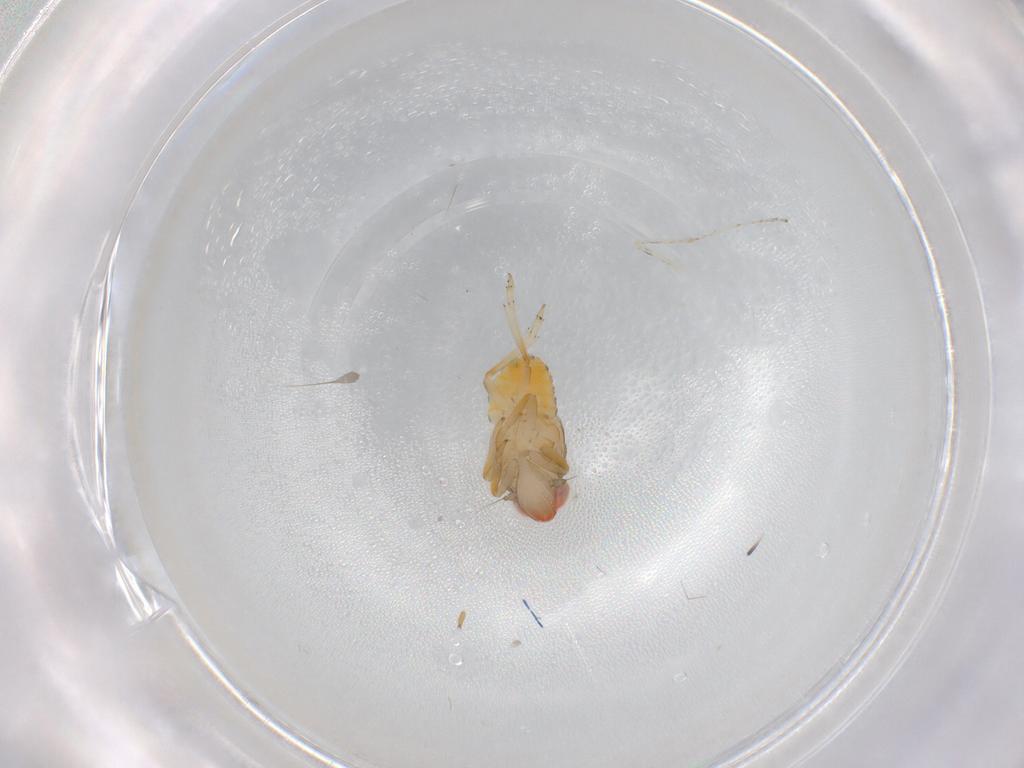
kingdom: Animalia
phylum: Arthropoda
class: Insecta
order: Hemiptera
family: Issidae
